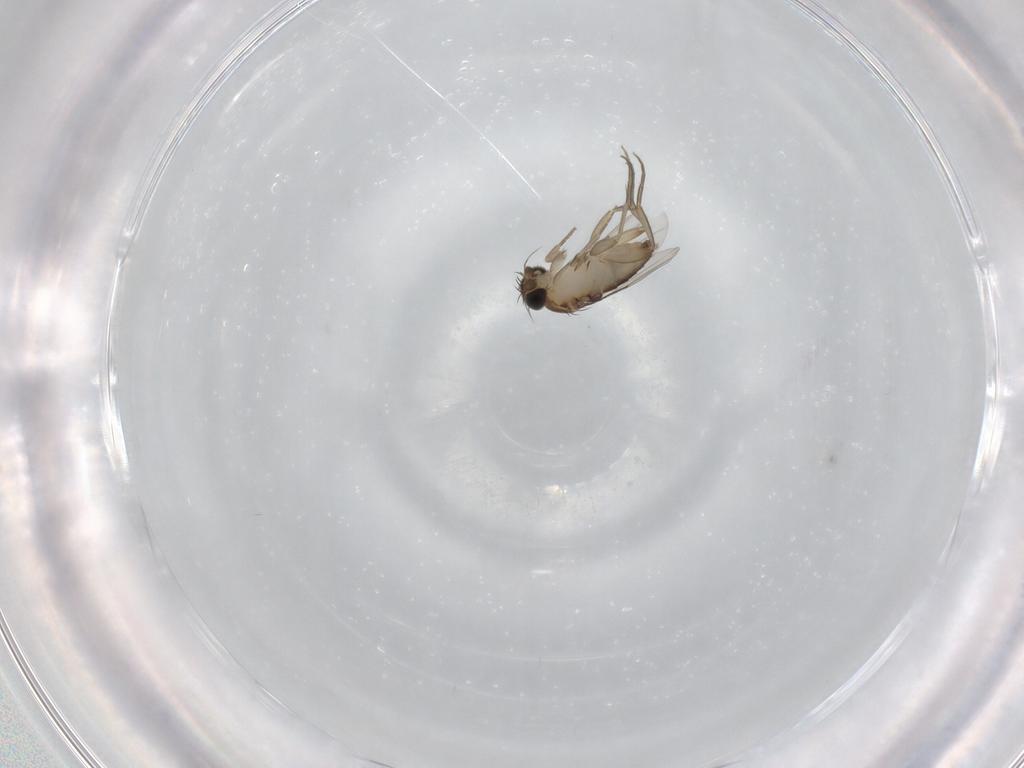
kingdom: Animalia
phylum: Arthropoda
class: Insecta
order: Diptera
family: Phoridae
